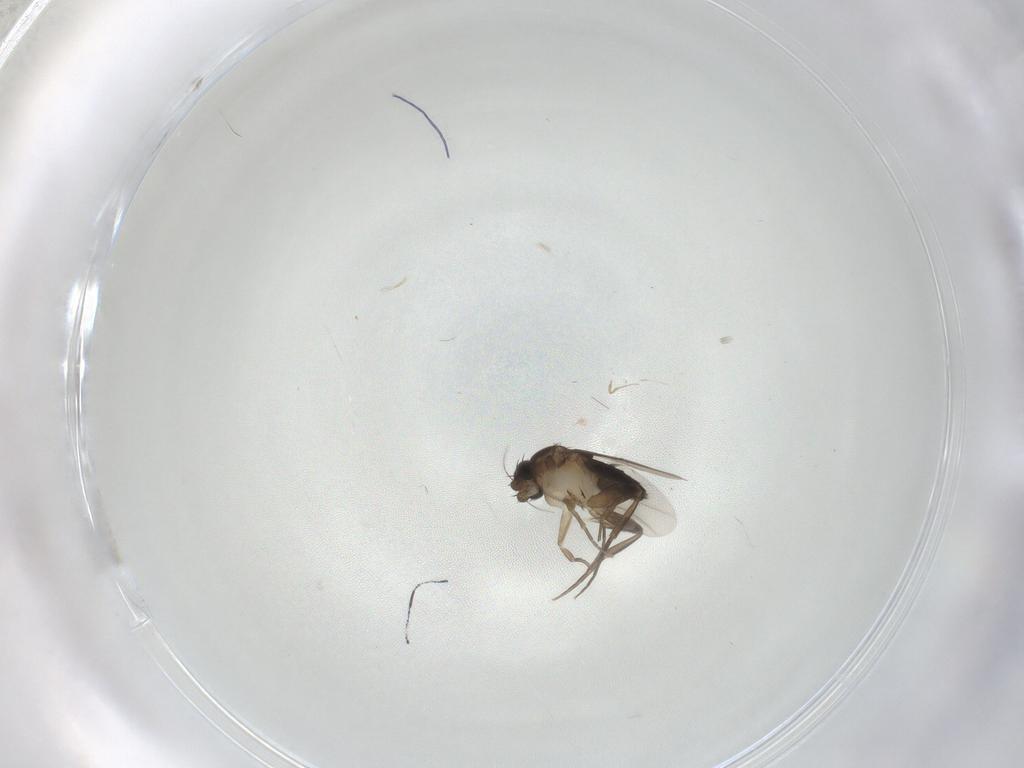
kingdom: Animalia
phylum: Arthropoda
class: Insecta
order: Diptera
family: Phoridae
